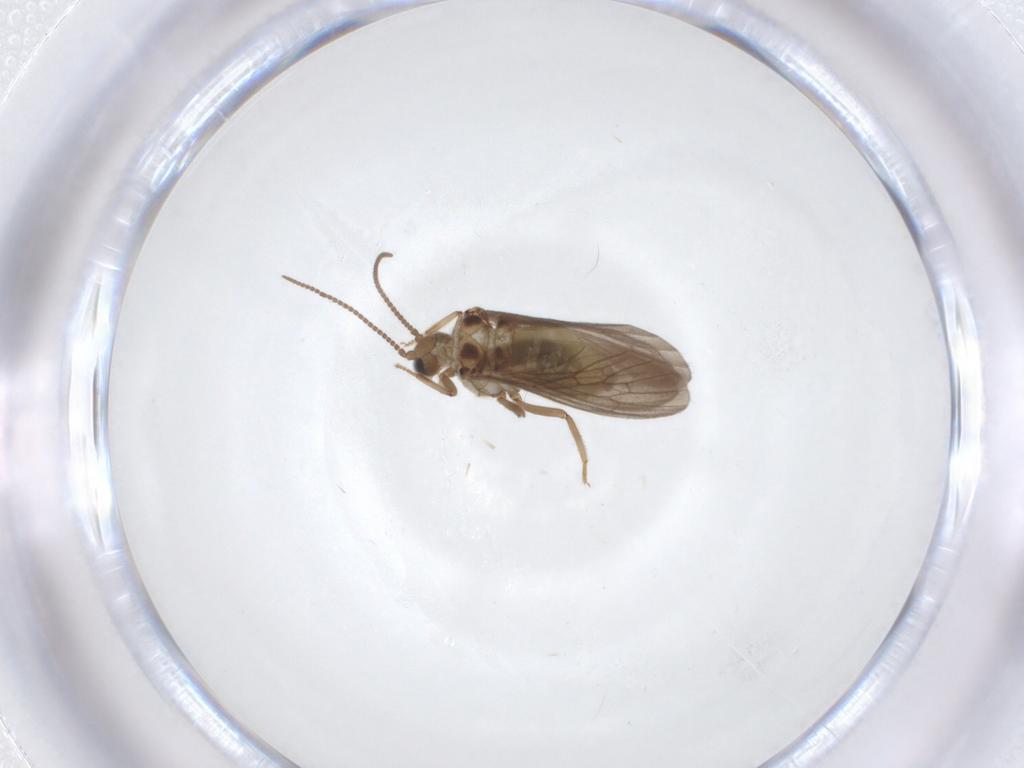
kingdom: Animalia
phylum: Arthropoda
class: Insecta
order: Neuroptera
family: Coniopterygidae
